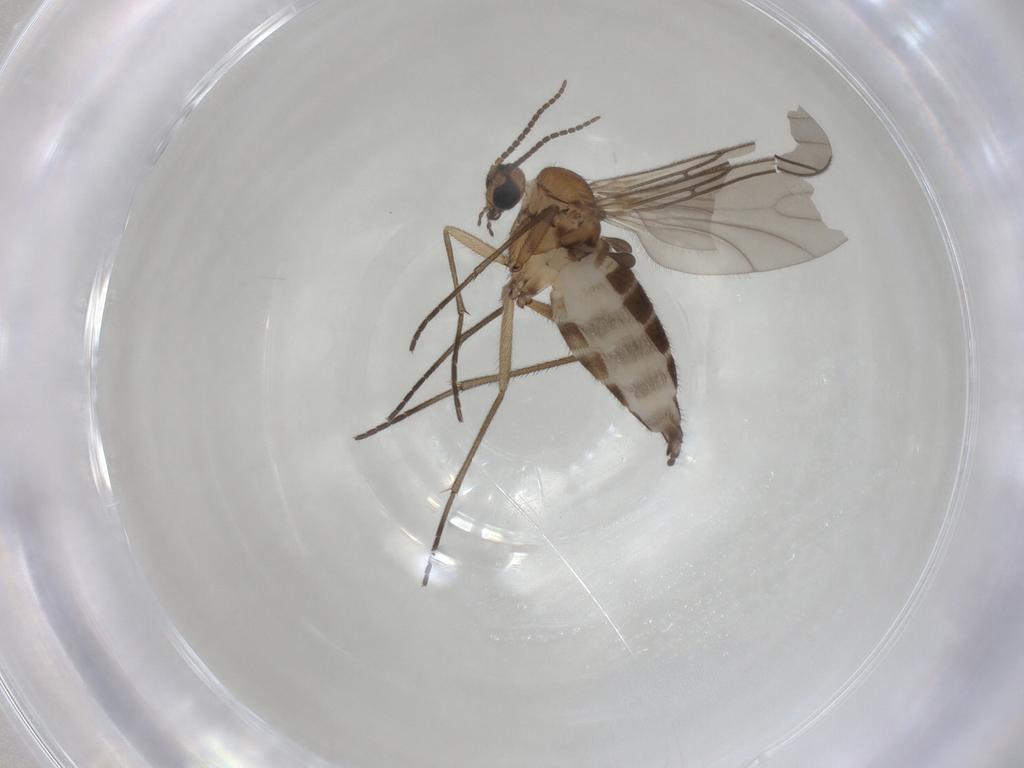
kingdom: Animalia
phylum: Arthropoda
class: Insecta
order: Diptera
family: Sciaridae
